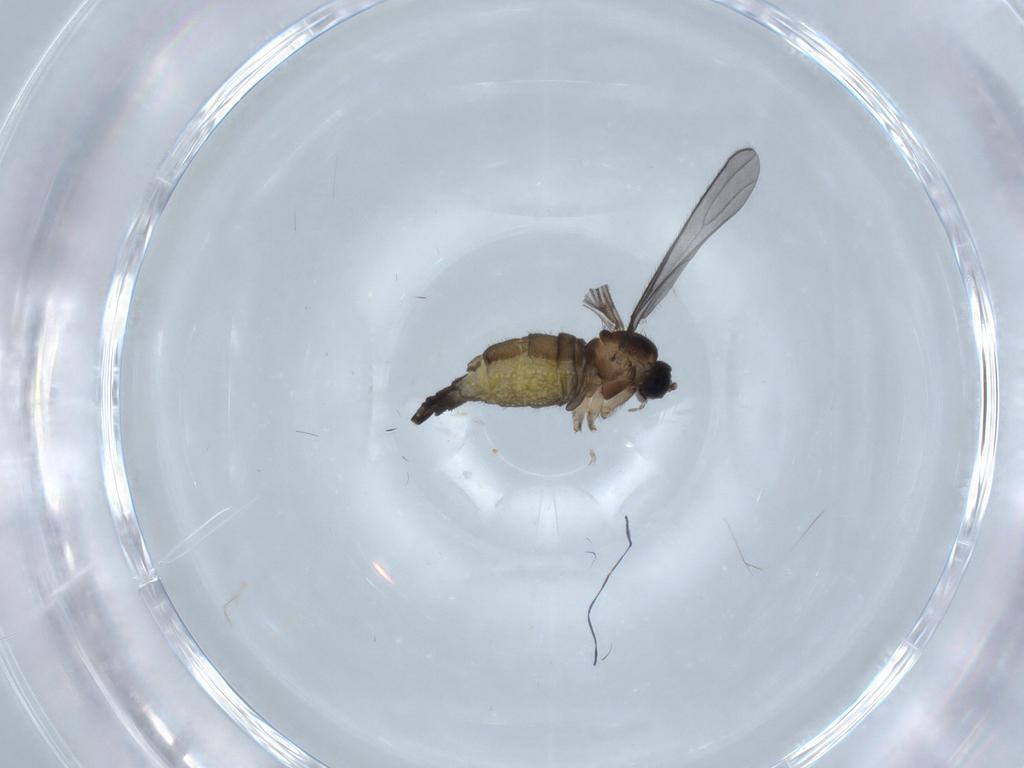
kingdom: Animalia
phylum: Arthropoda
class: Insecta
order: Diptera
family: Sciaridae
